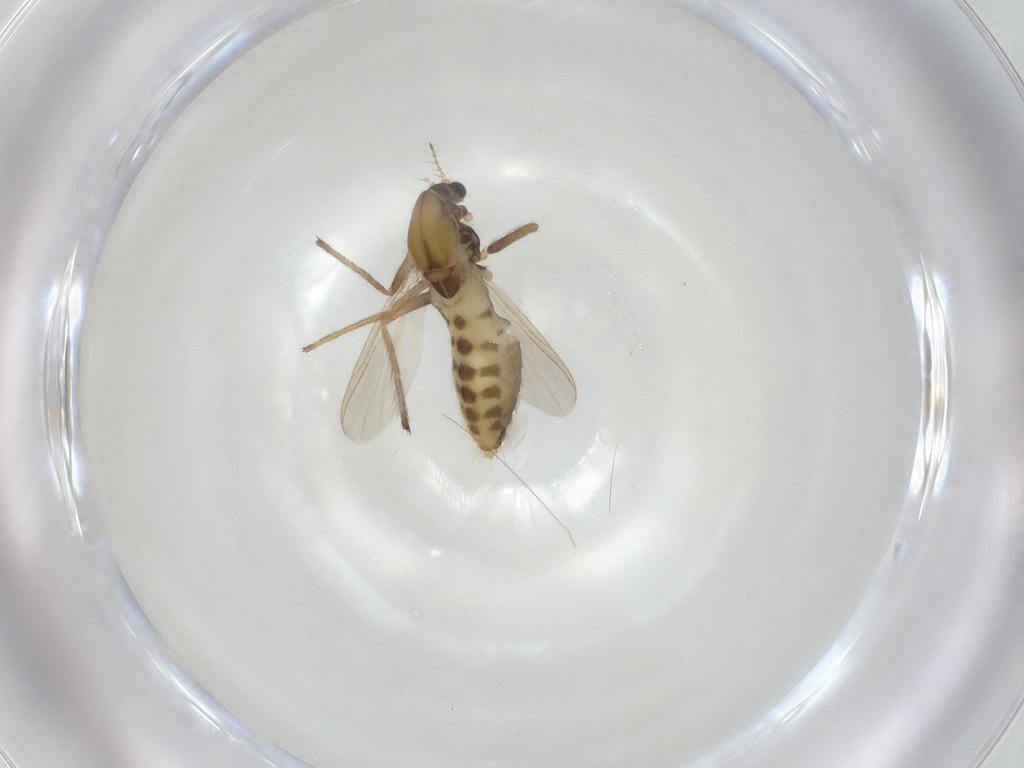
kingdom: Animalia
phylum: Arthropoda
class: Insecta
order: Diptera
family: Chironomidae
